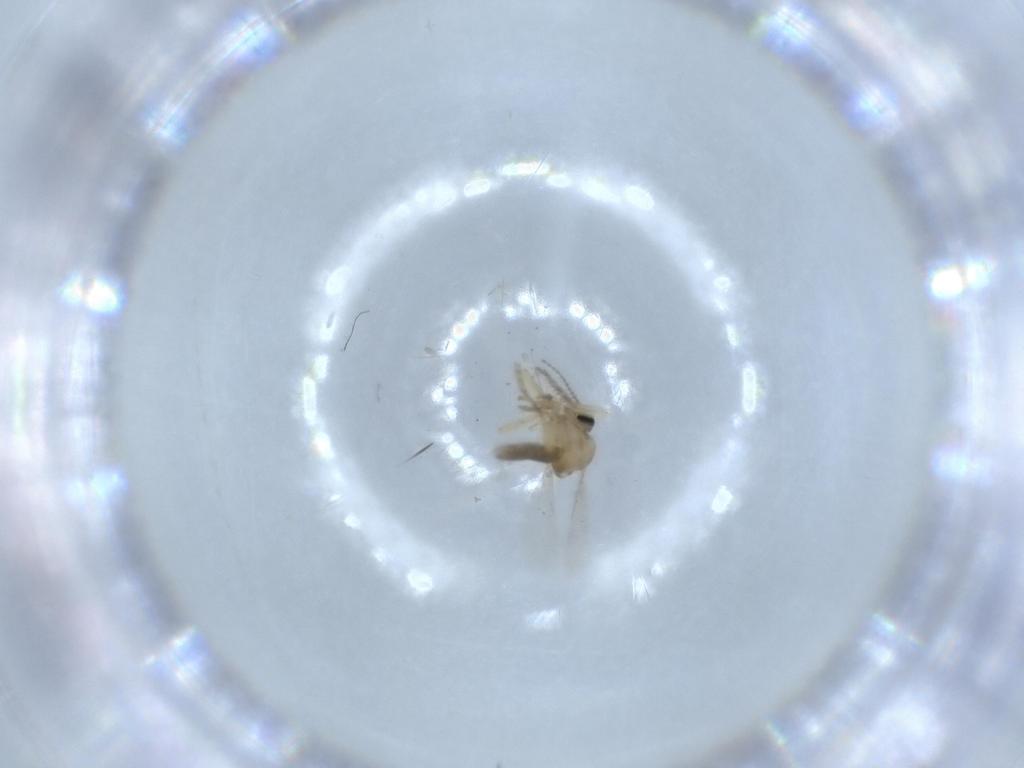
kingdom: Animalia
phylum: Arthropoda
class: Insecta
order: Diptera
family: Ceratopogonidae
